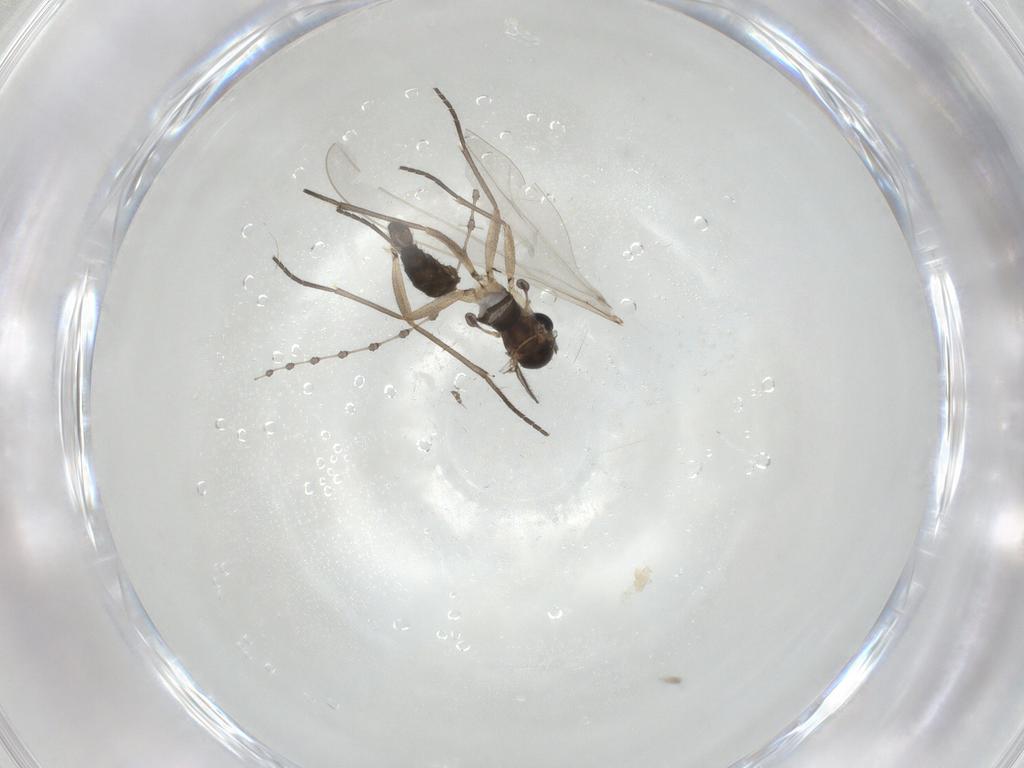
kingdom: Animalia
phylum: Arthropoda
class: Insecta
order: Diptera
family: Sciaridae
